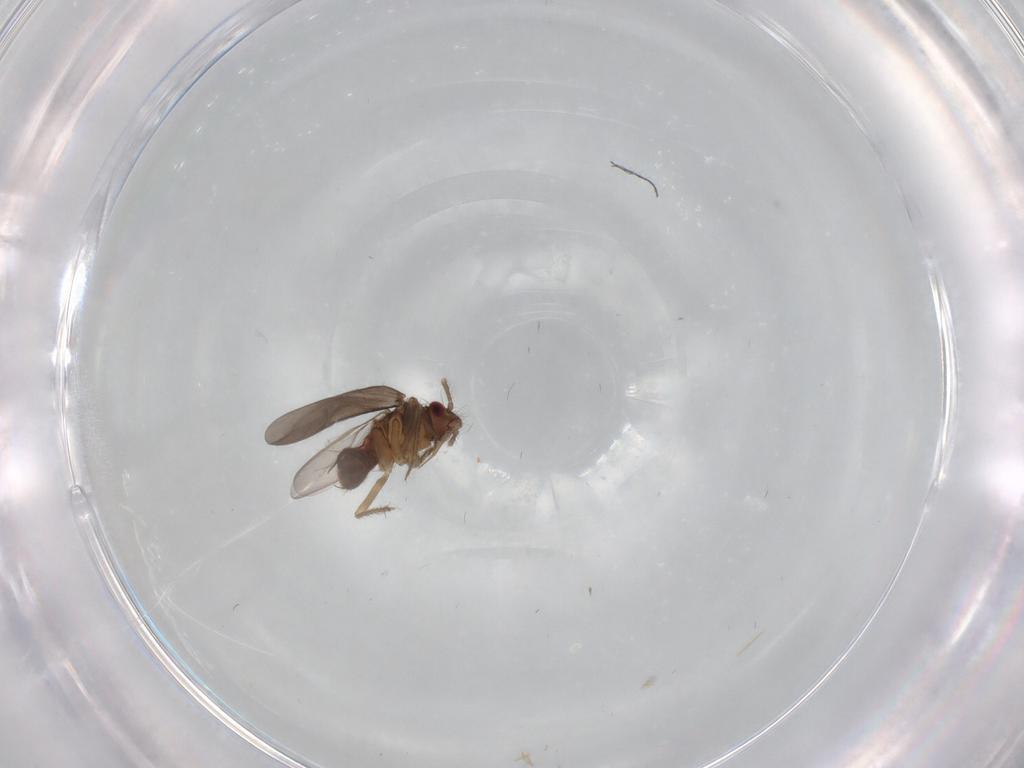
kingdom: Animalia
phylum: Arthropoda
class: Insecta
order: Hemiptera
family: Ceratocombidae
